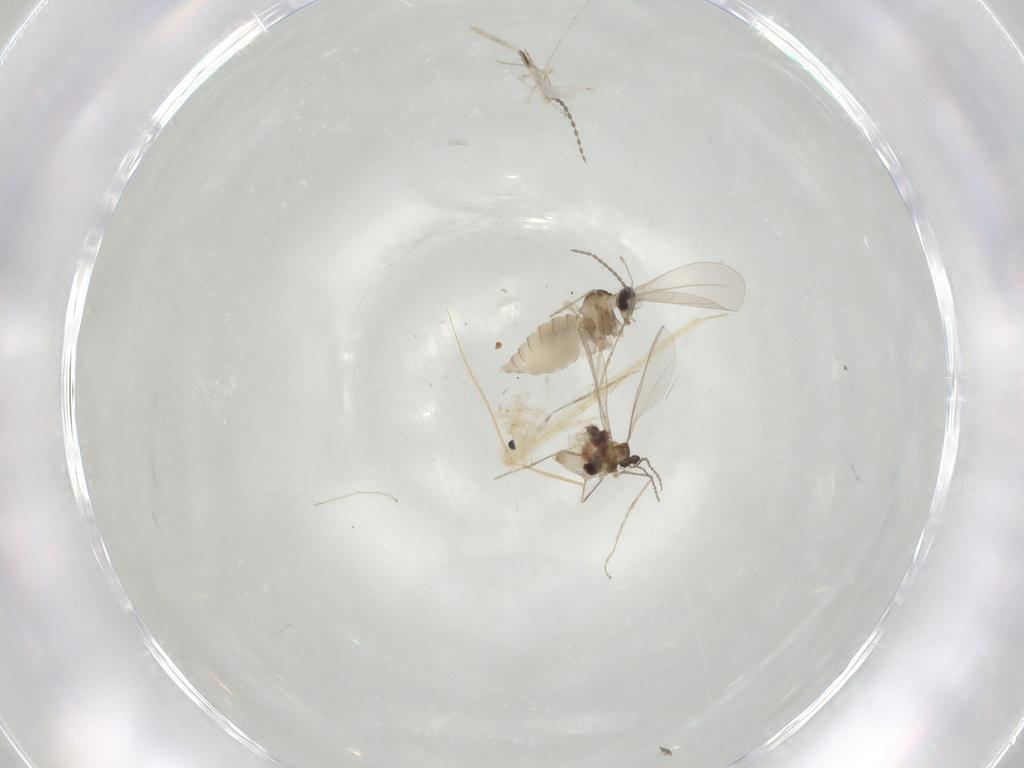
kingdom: Animalia
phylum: Arthropoda
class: Insecta
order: Diptera
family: Cecidomyiidae
